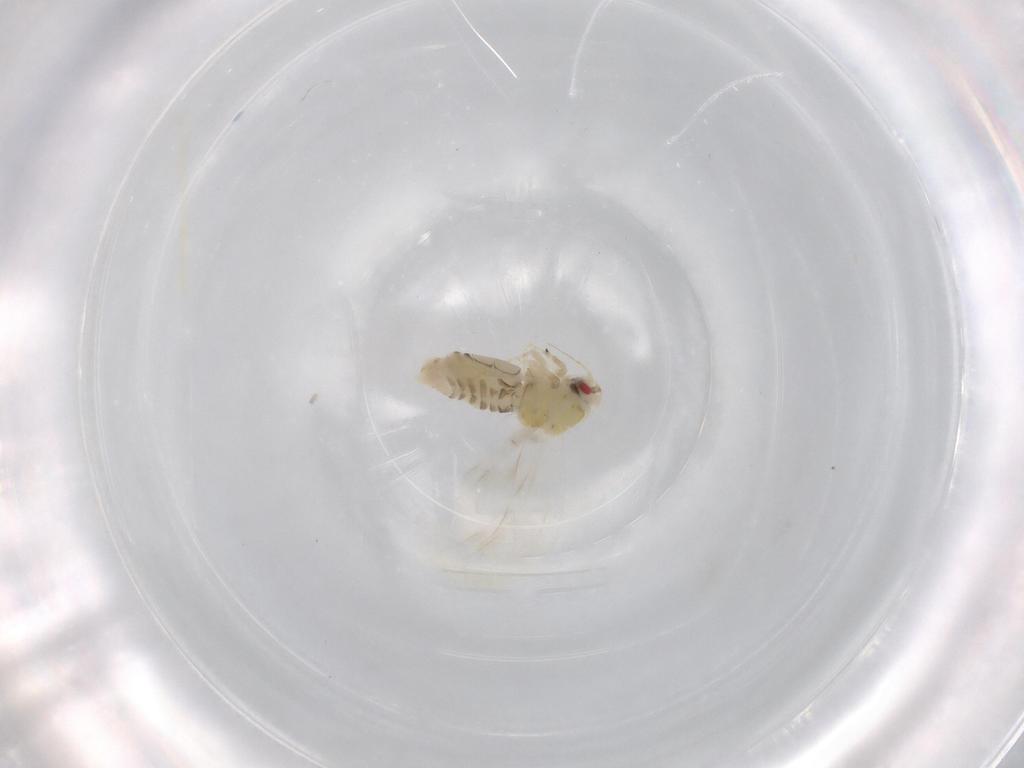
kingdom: Animalia
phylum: Arthropoda
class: Insecta
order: Hemiptera
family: Aleyrodidae
